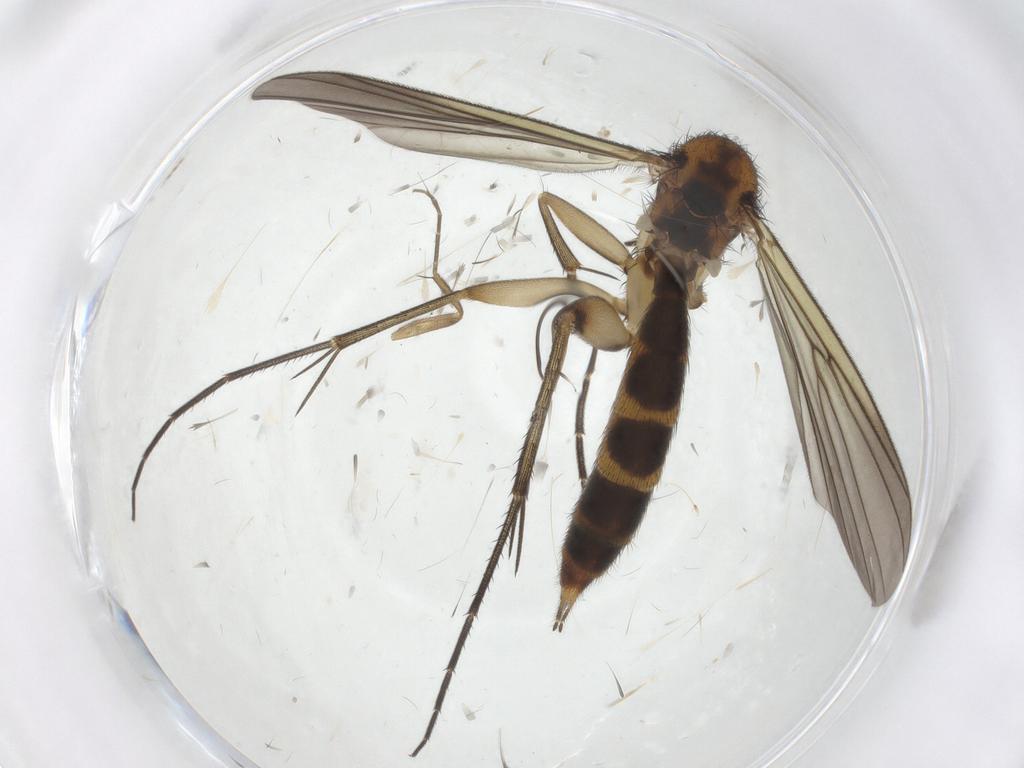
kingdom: Animalia
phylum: Arthropoda
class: Insecta
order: Diptera
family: Mycetophilidae
